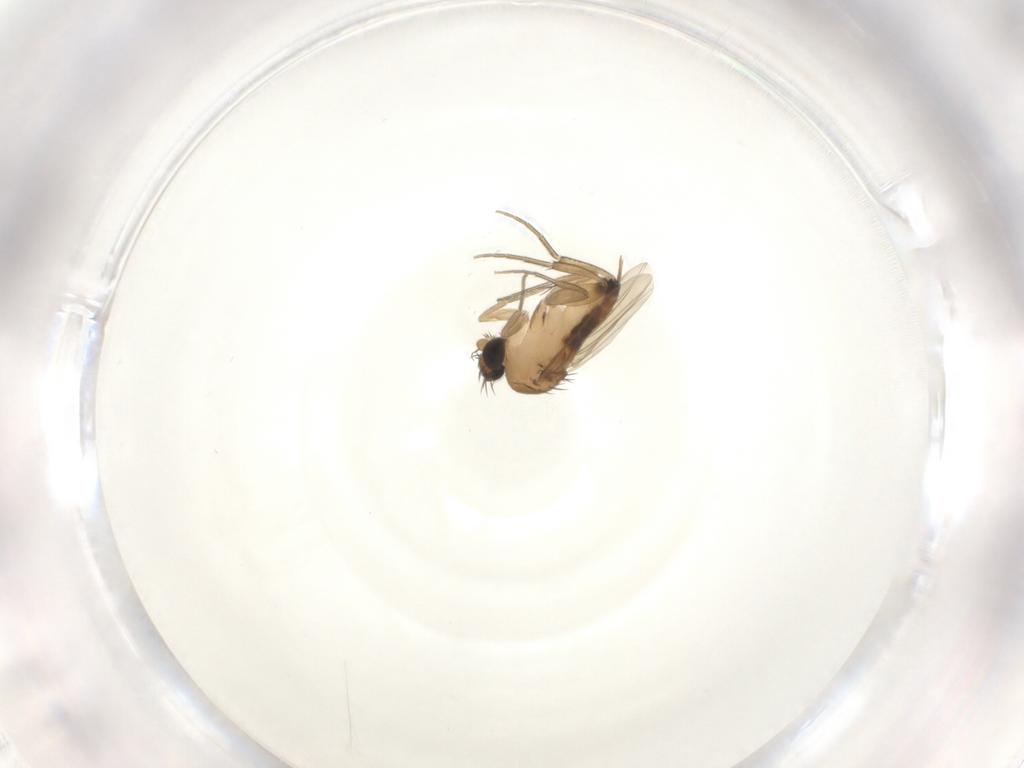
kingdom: Animalia
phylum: Arthropoda
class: Insecta
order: Diptera
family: Phoridae
